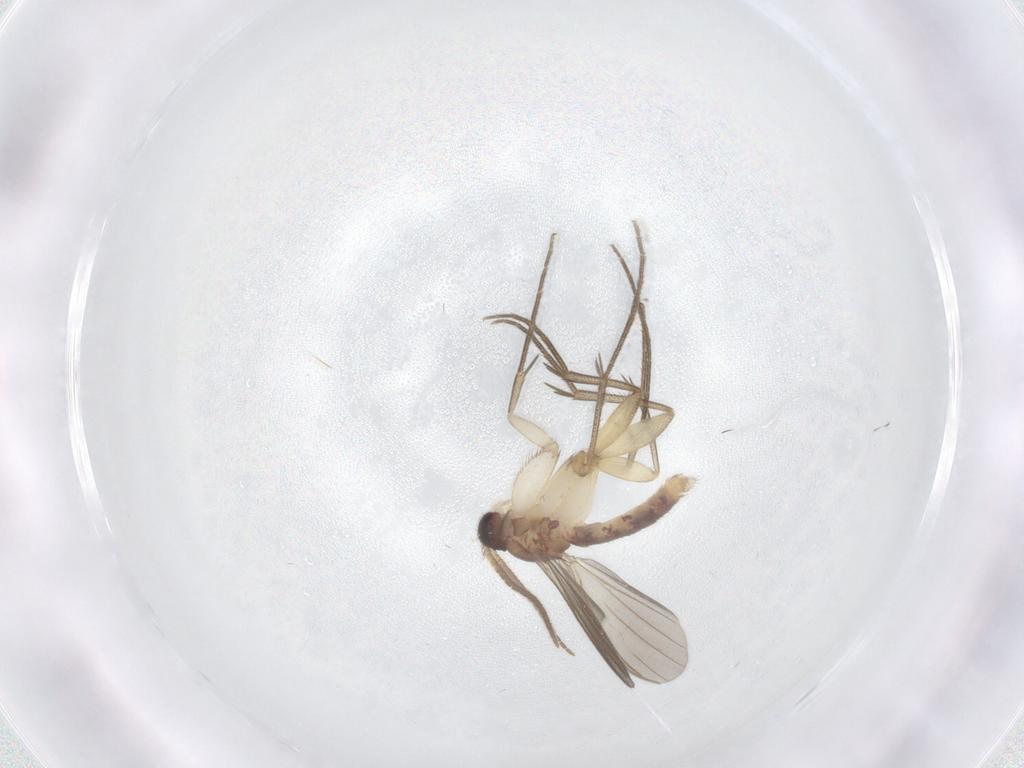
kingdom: Animalia
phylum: Arthropoda
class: Insecta
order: Diptera
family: Mycetophilidae
